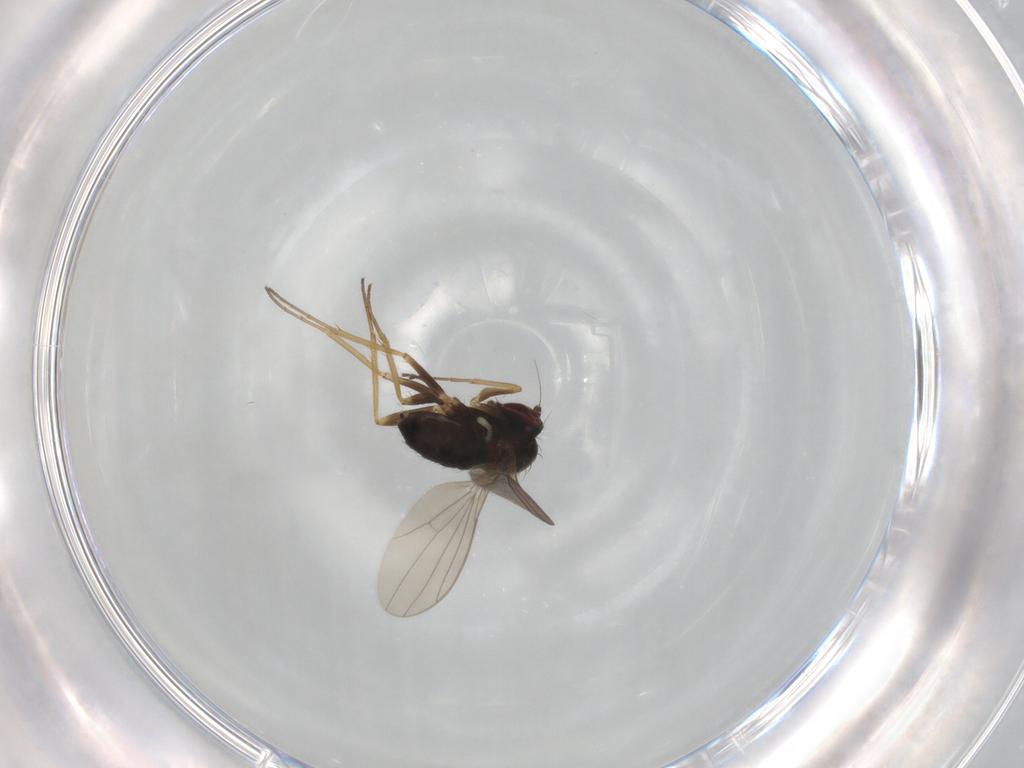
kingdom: Animalia
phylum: Arthropoda
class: Insecta
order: Diptera
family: Dolichopodidae
